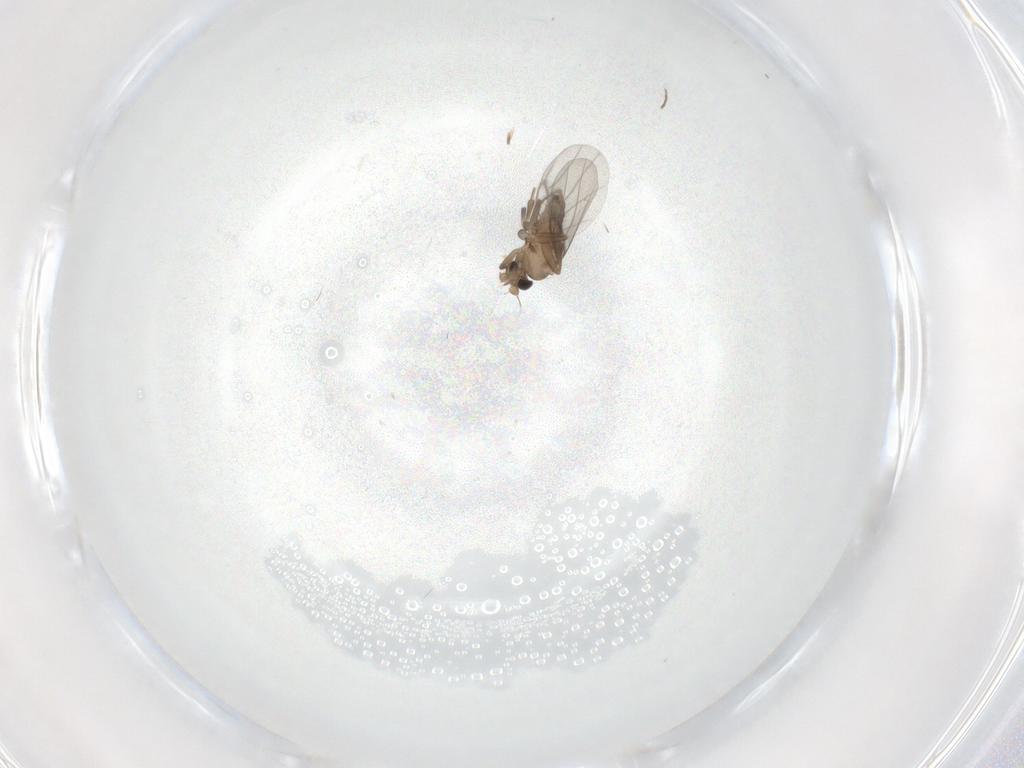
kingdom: Animalia
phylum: Arthropoda
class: Insecta
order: Diptera
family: Ceratopogonidae
